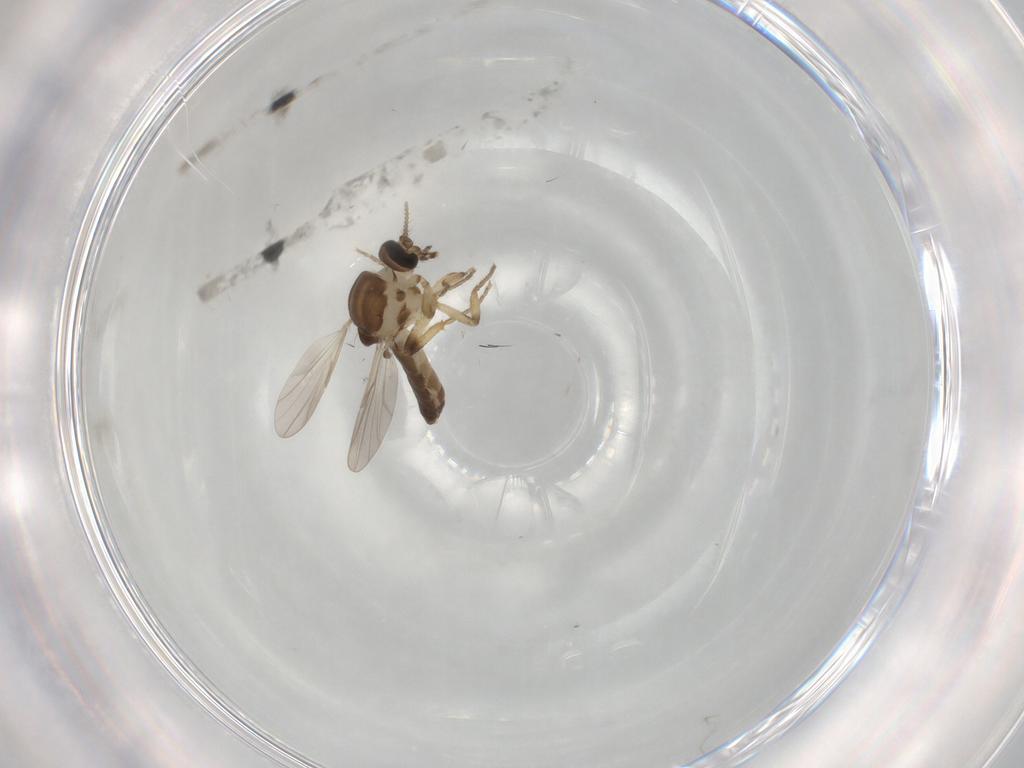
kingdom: Animalia
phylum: Arthropoda
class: Insecta
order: Diptera
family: Ceratopogonidae
